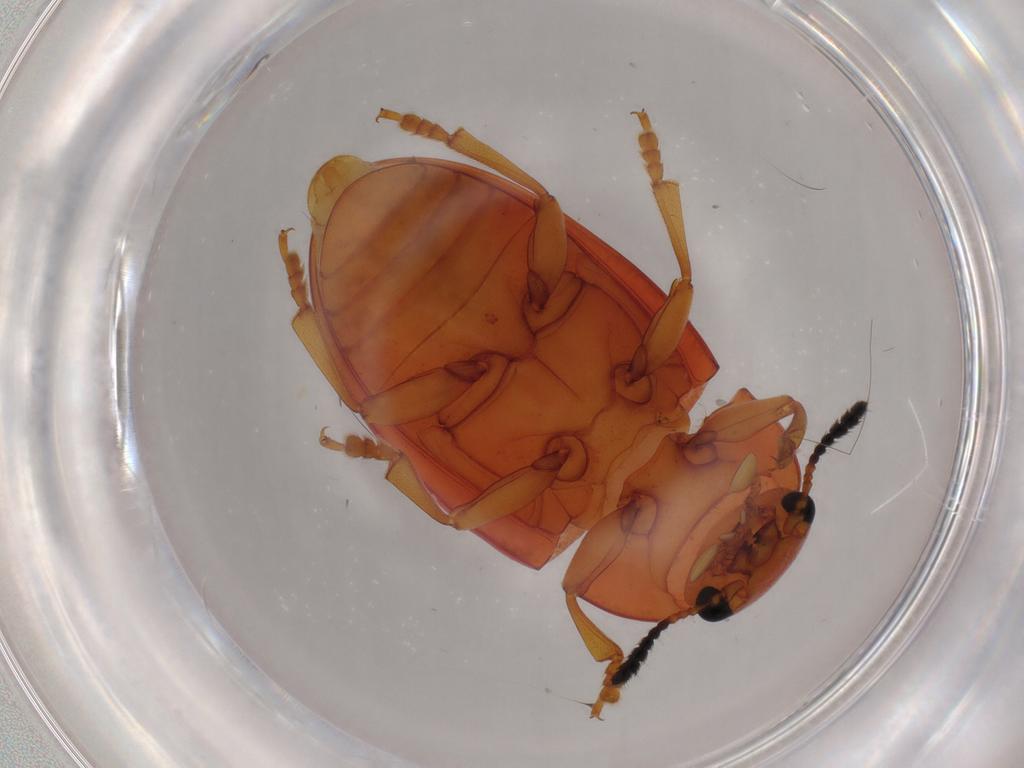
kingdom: Animalia
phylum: Arthropoda
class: Insecta
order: Coleoptera
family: Erotylidae
